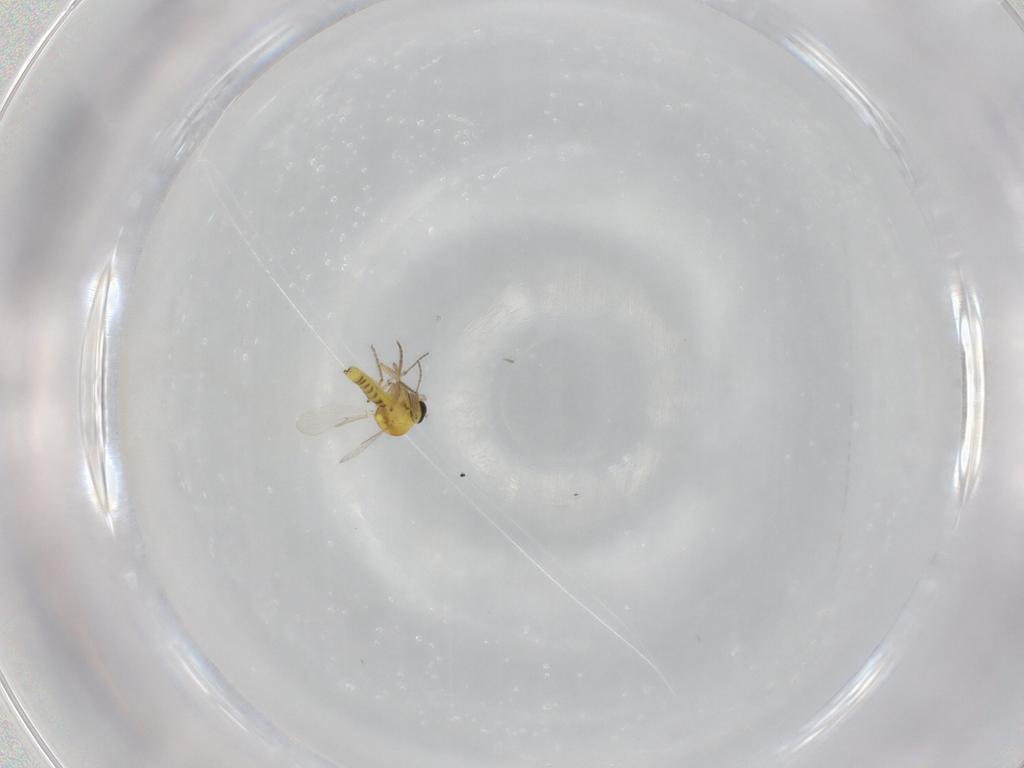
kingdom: Animalia
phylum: Arthropoda
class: Insecta
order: Diptera
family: Ceratopogonidae
